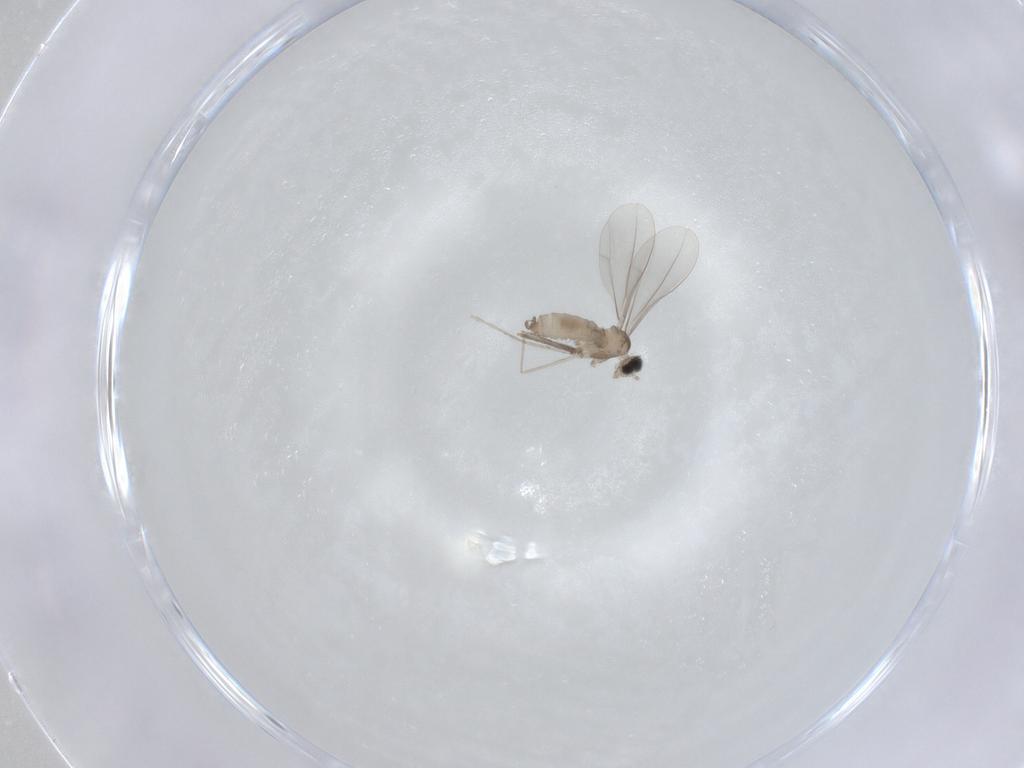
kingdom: Animalia
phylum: Arthropoda
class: Insecta
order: Diptera
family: Cecidomyiidae
